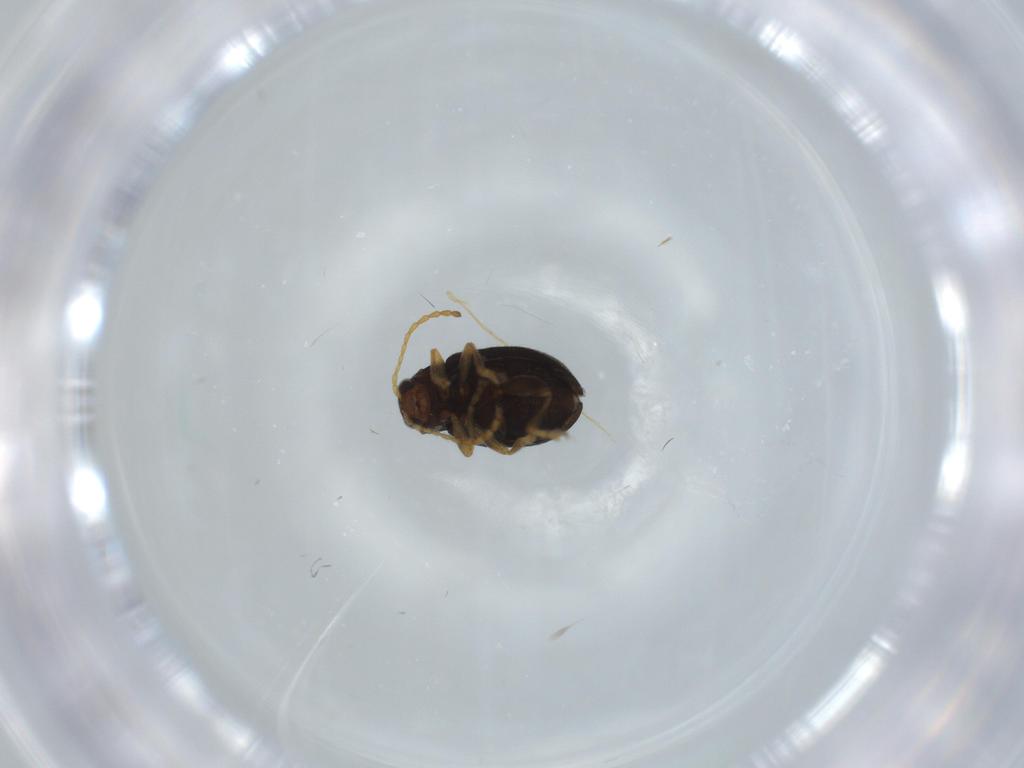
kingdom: Animalia
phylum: Arthropoda
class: Insecta
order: Coleoptera
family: Chrysomelidae
